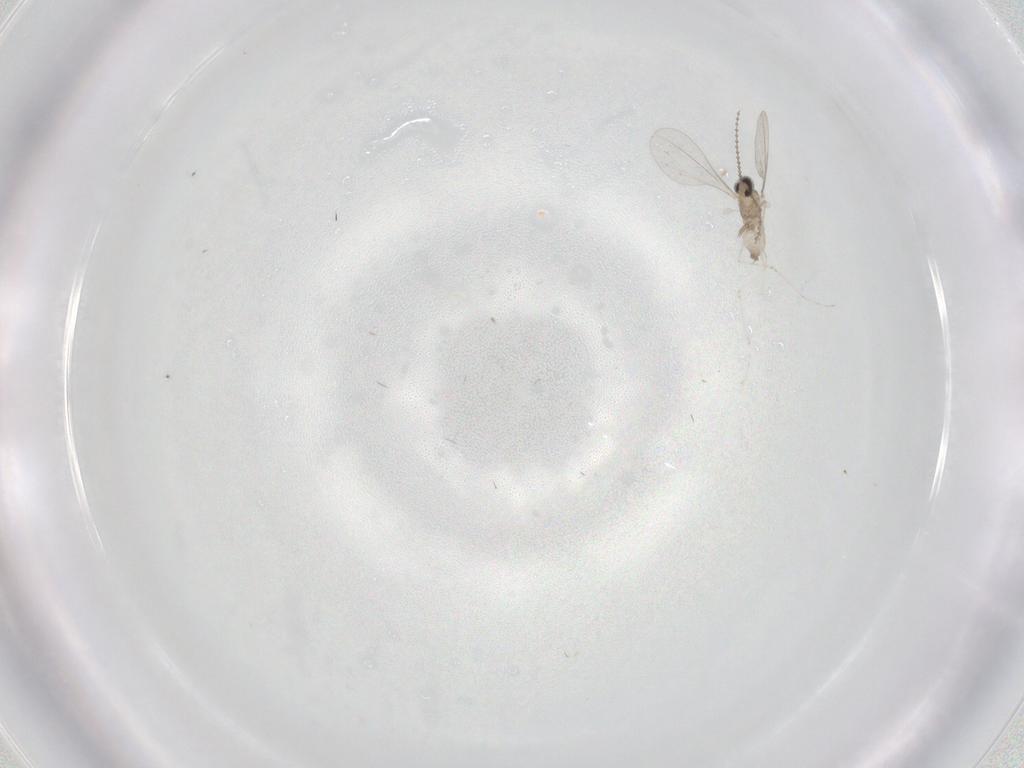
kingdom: Animalia
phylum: Arthropoda
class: Insecta
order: Diptera
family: Cecidomyiidae
